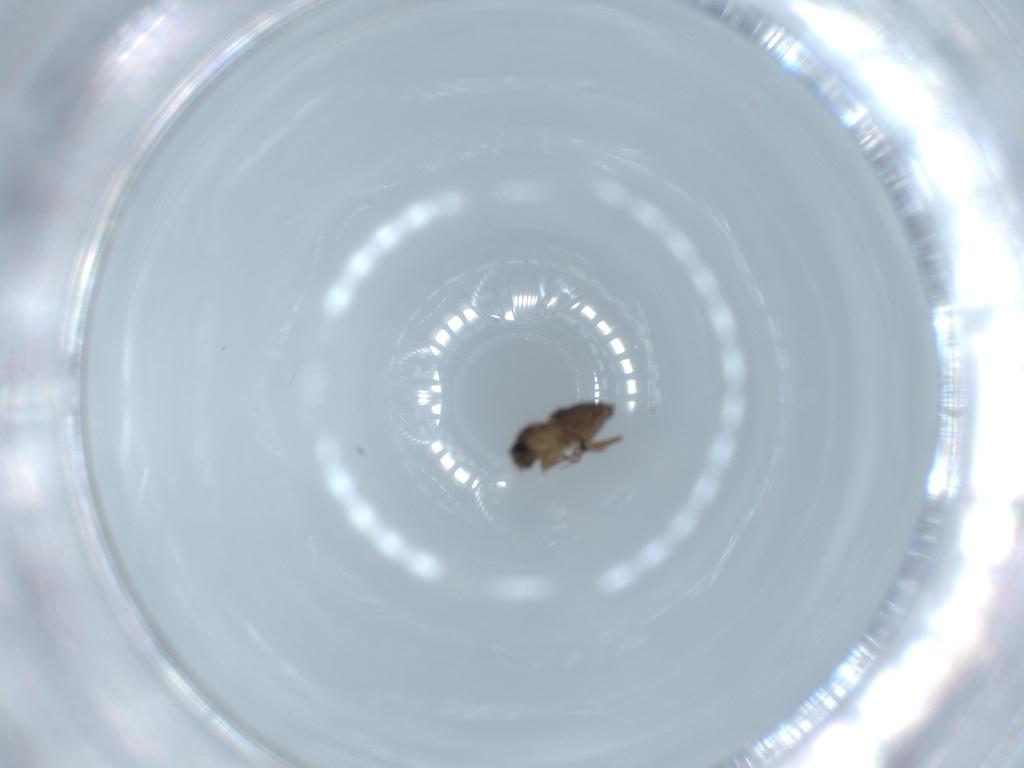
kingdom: Animalia
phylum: Arthropoda
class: Insecta
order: Diptera
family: Phoridae
